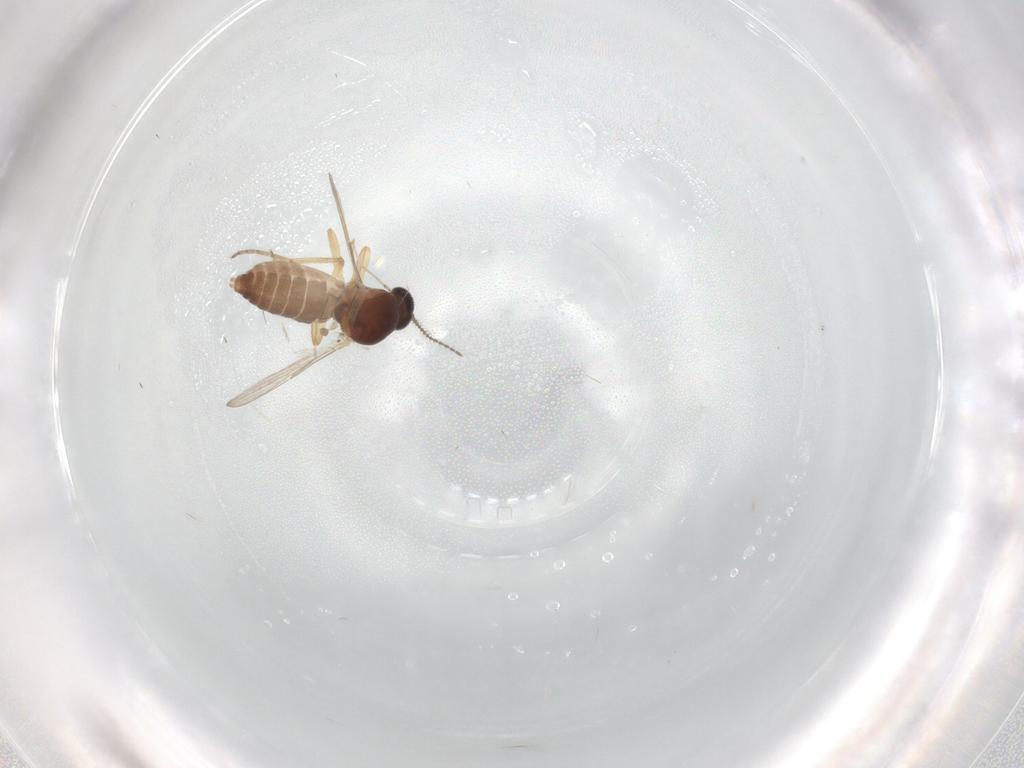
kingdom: Animalia
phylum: Arthropoda
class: Insecta
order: Diptera
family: Ceratopogonidae
